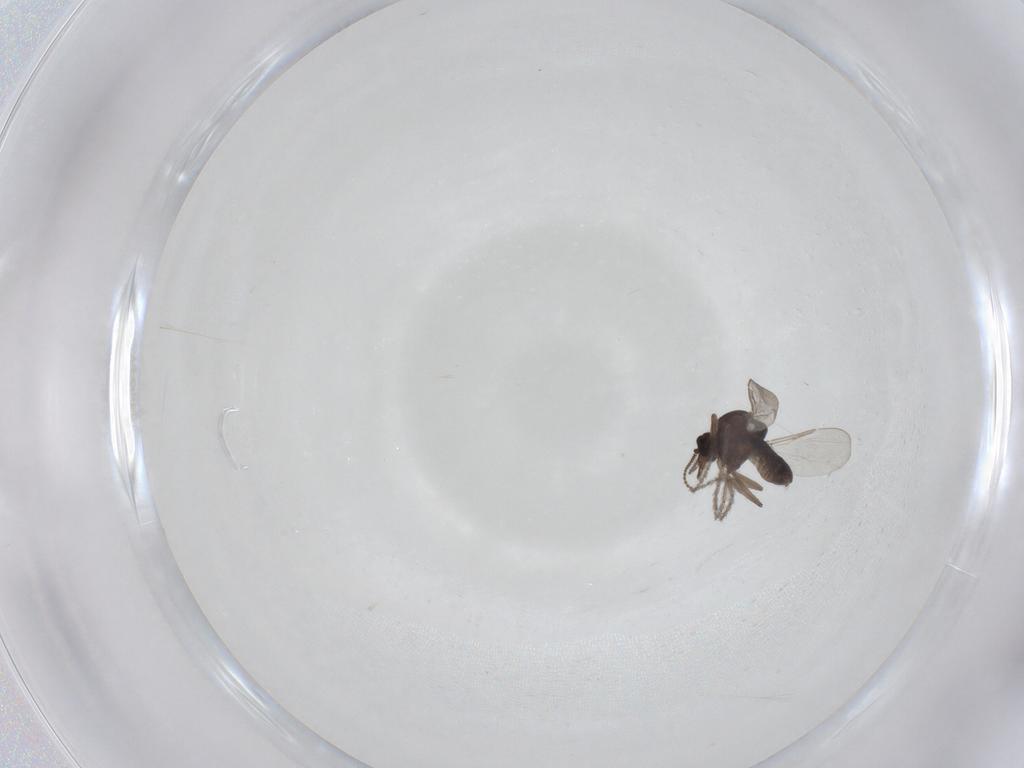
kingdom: Animalia
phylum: Arthropoda
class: Insecta
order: Diptera
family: Ceratopogonidae
